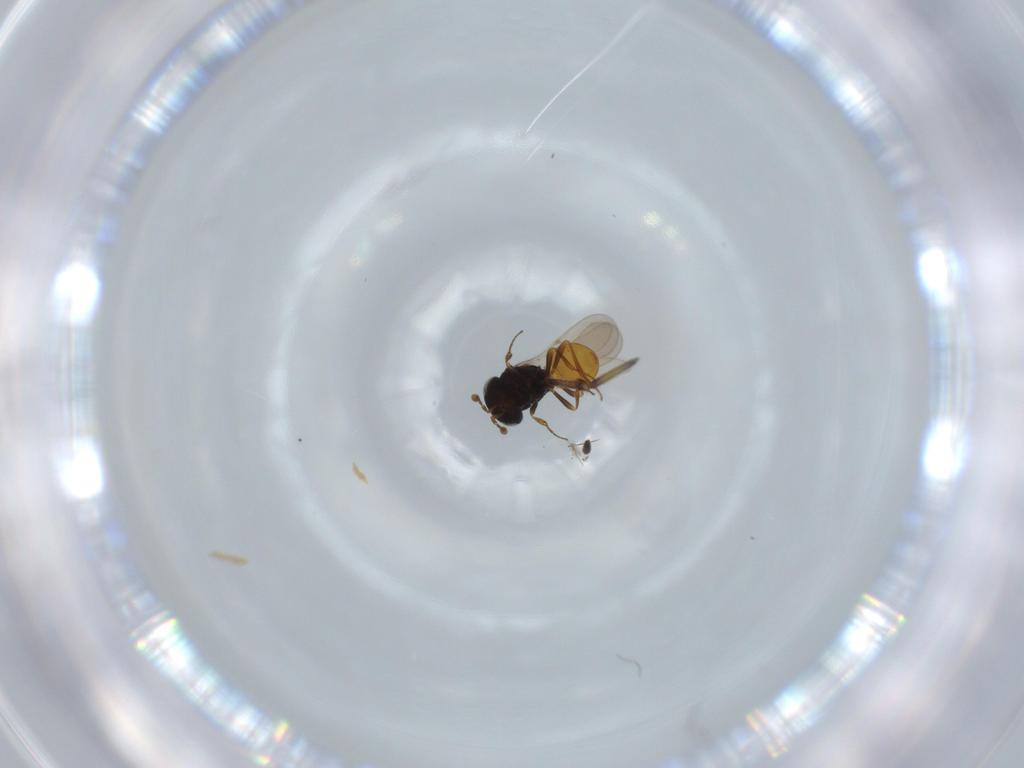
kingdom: Animalia
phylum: Arthropoda
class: Insecta
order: Hymenoptera
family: Scelionidae
